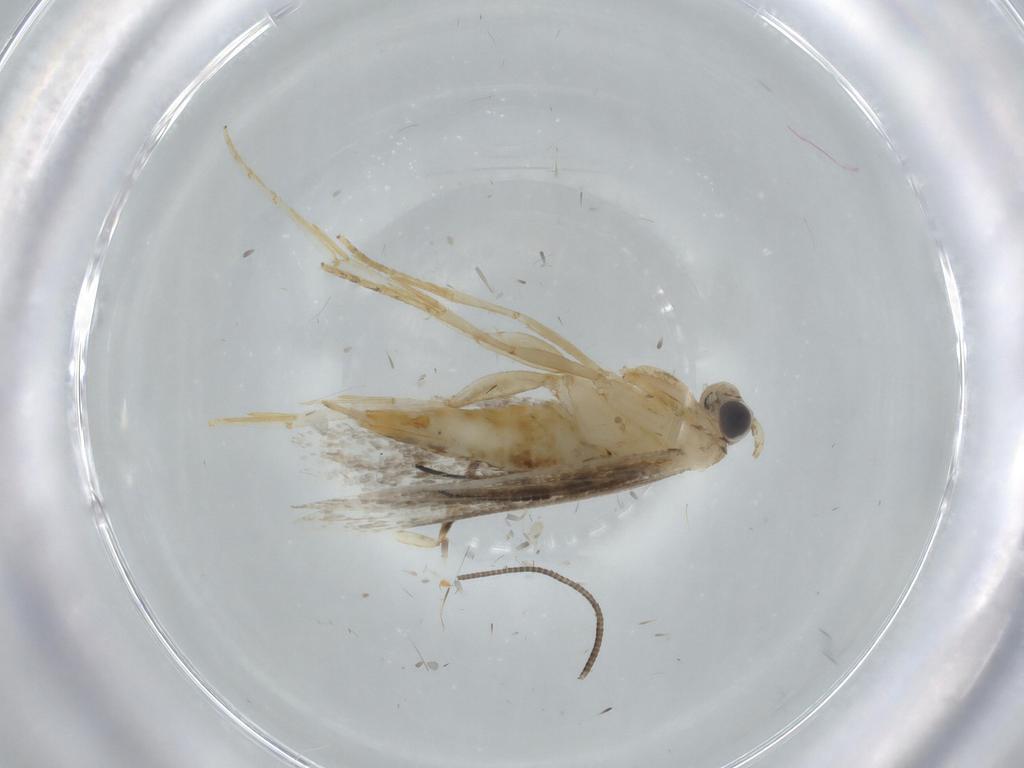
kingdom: Animalia
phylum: Arthropoda
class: Insecta
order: Lepidoptera
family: Tineidae
